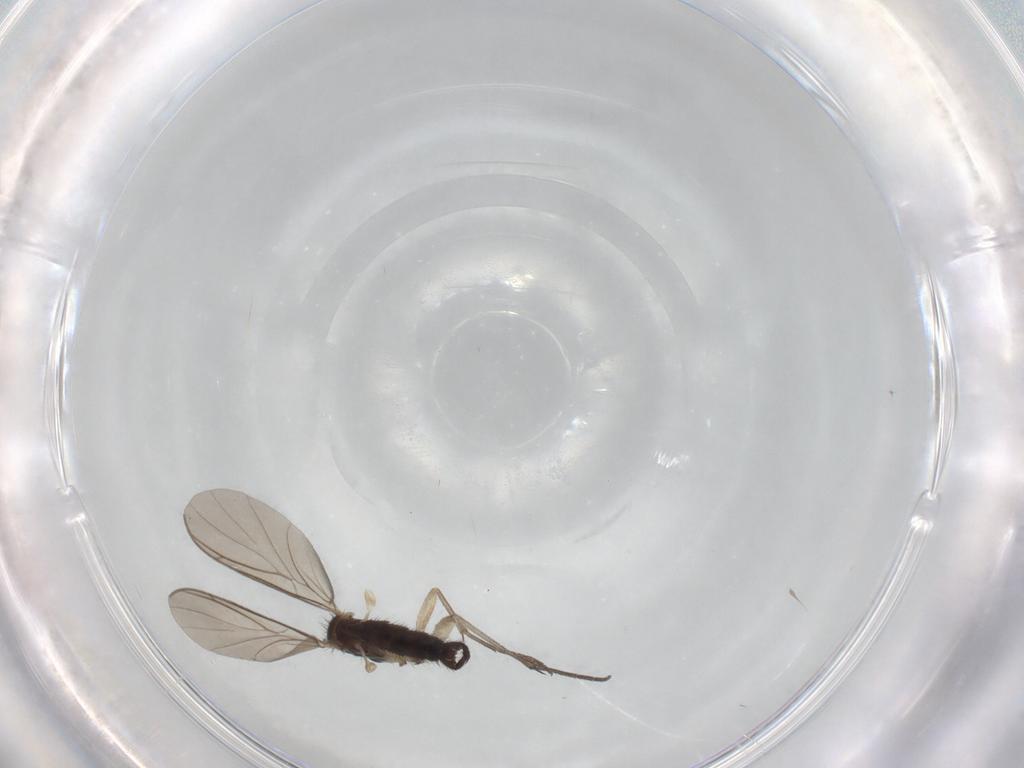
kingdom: Animalia
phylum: Arthropoda
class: Insecta
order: Diptera
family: Keroplatidae
